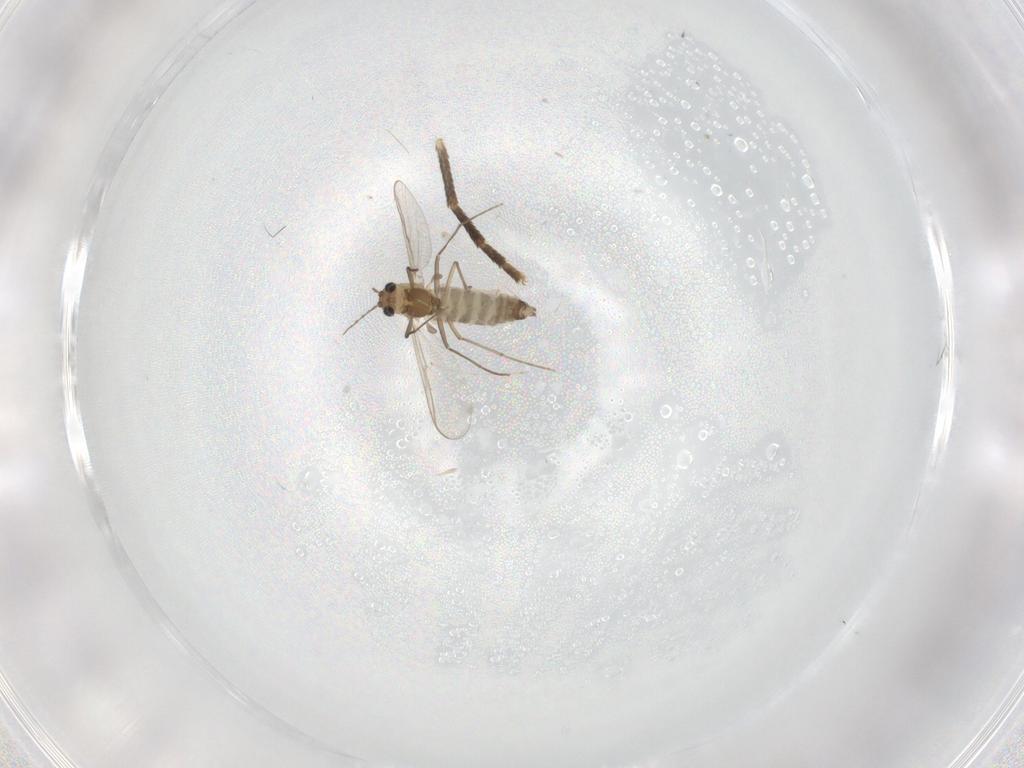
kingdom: Animalia
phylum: Arthropoda
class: Insecta
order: Diptera
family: Chironomidae
